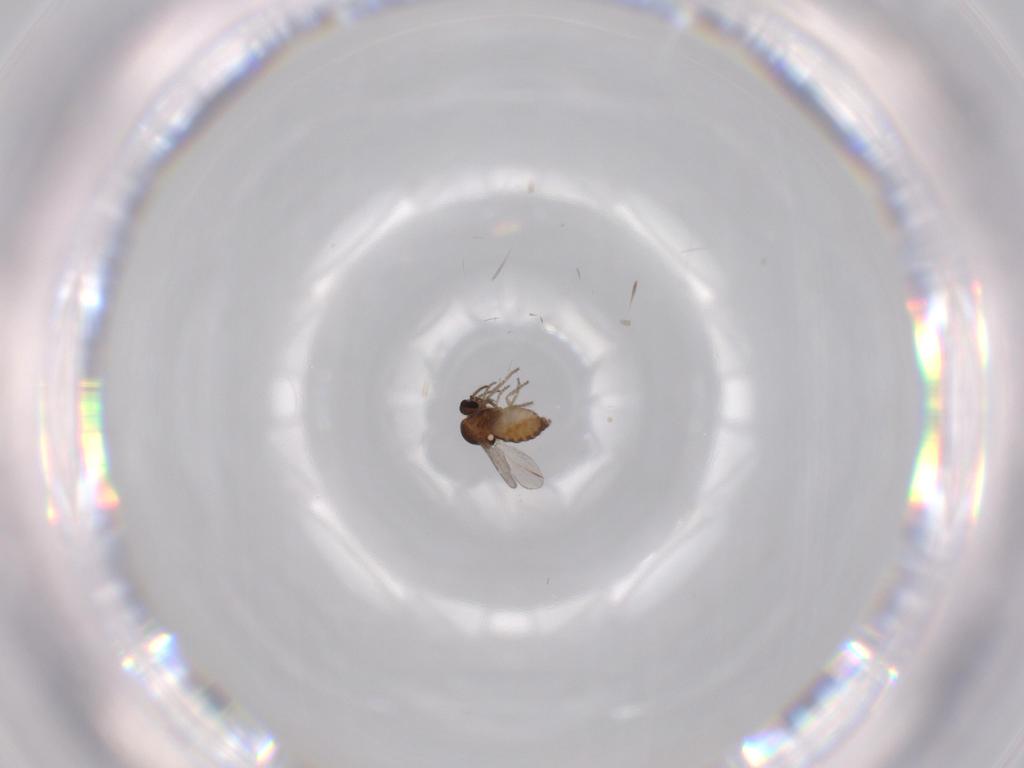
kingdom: Animalia
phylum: Arthropoda
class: Insecta
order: Diptera
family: Ceratopogonidae
